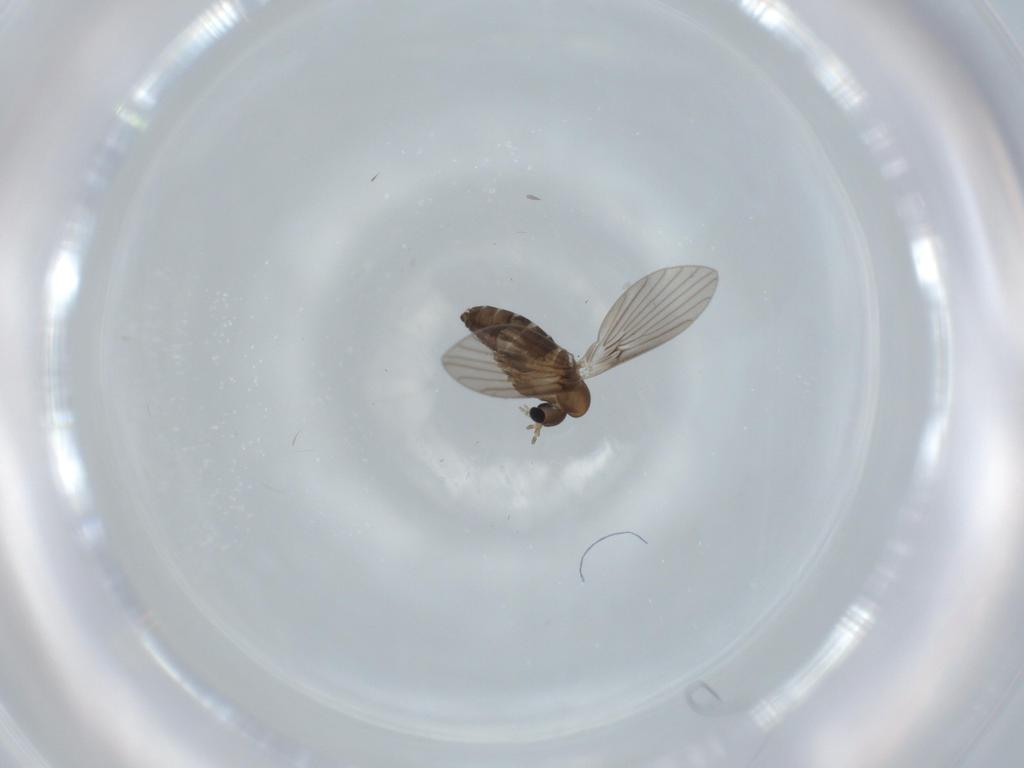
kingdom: Animalia
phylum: Arthropoda
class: Insecta
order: Diptera
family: Psychodidae
